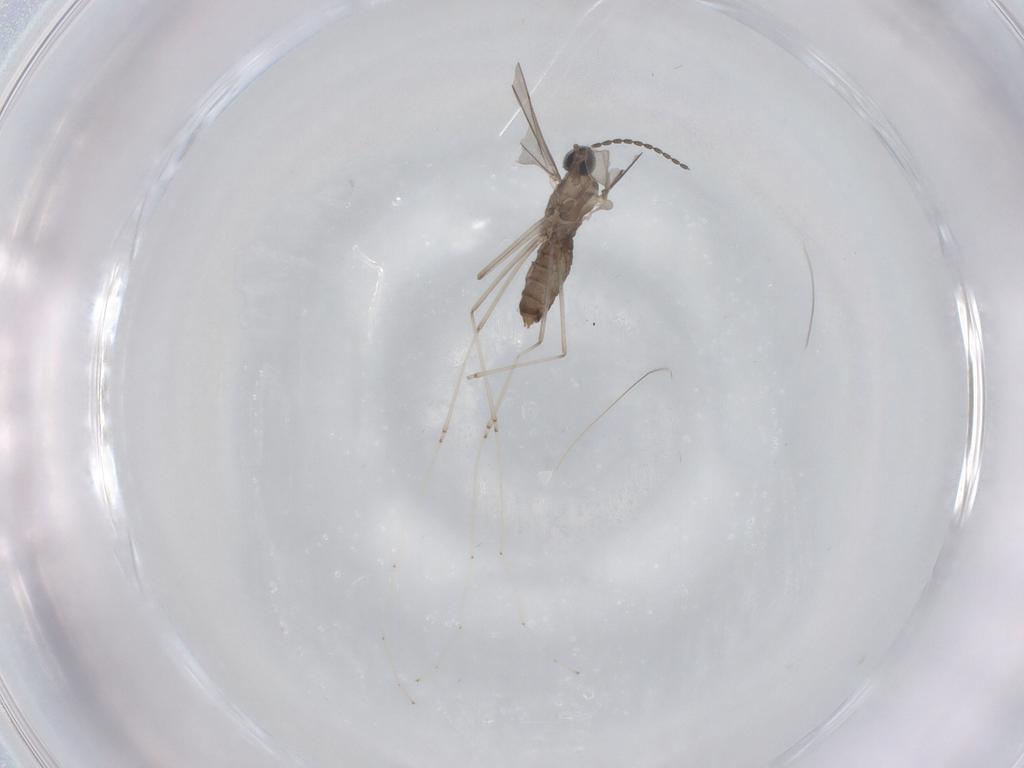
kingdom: Animalia
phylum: Arthropoda
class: Insecta
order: Diptera
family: Cecidomyiidae
